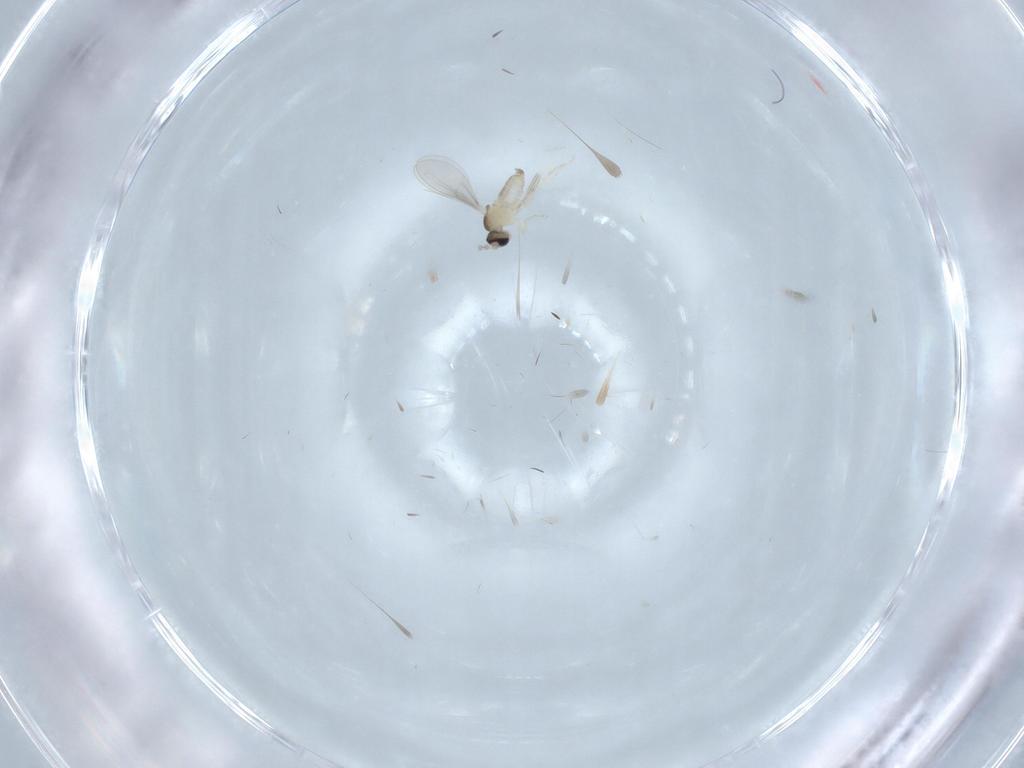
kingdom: Animalia
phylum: Arthropoda
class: Insecta
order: Diptera
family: Cecidomyiidae
